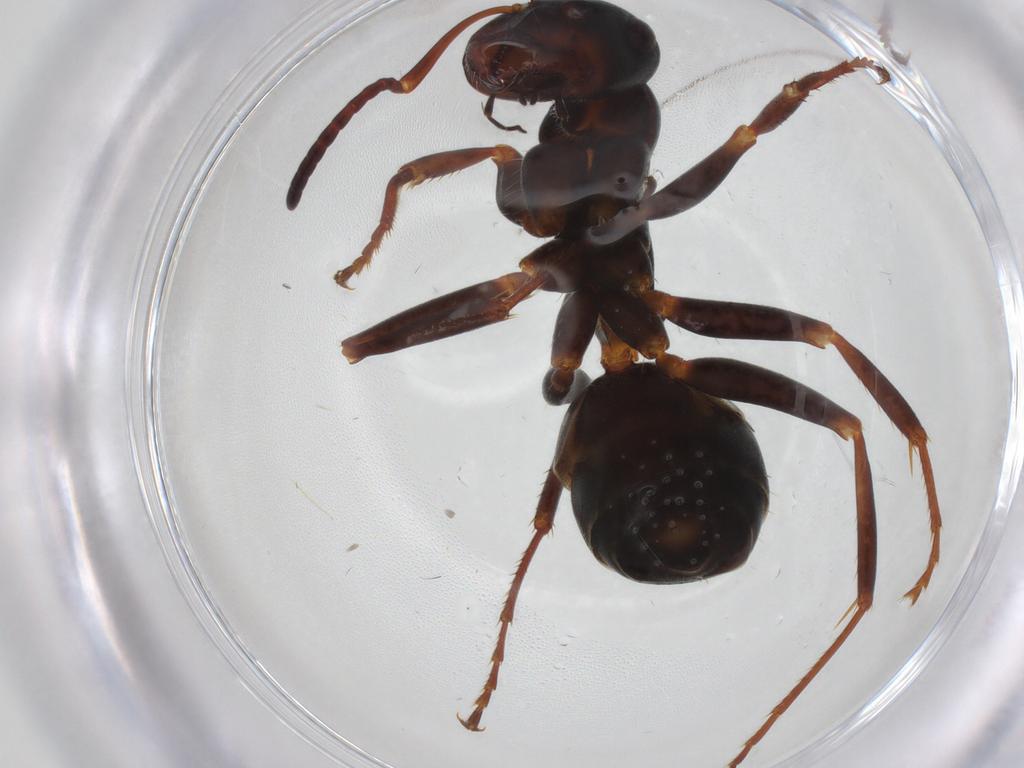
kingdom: Animalia
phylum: Arthropoda
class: Insecta
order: Hymenoptera
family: Formicidae
